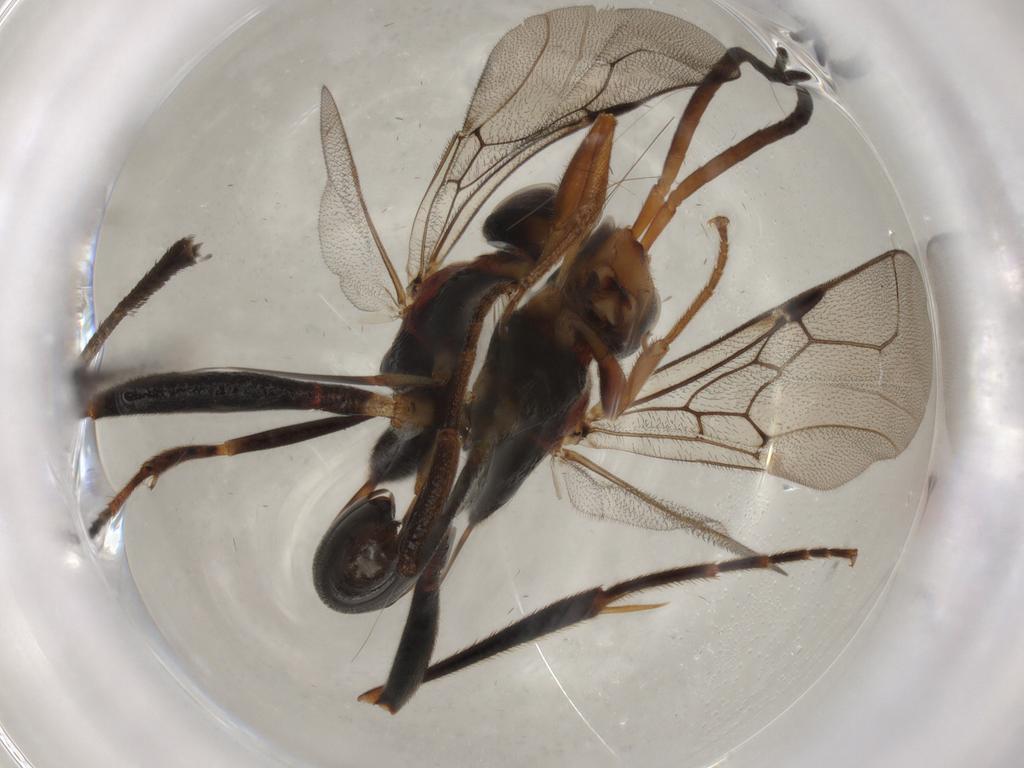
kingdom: Animalia
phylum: Arthropoda
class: Insecta
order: Hymenoptera
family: Evaniidae
